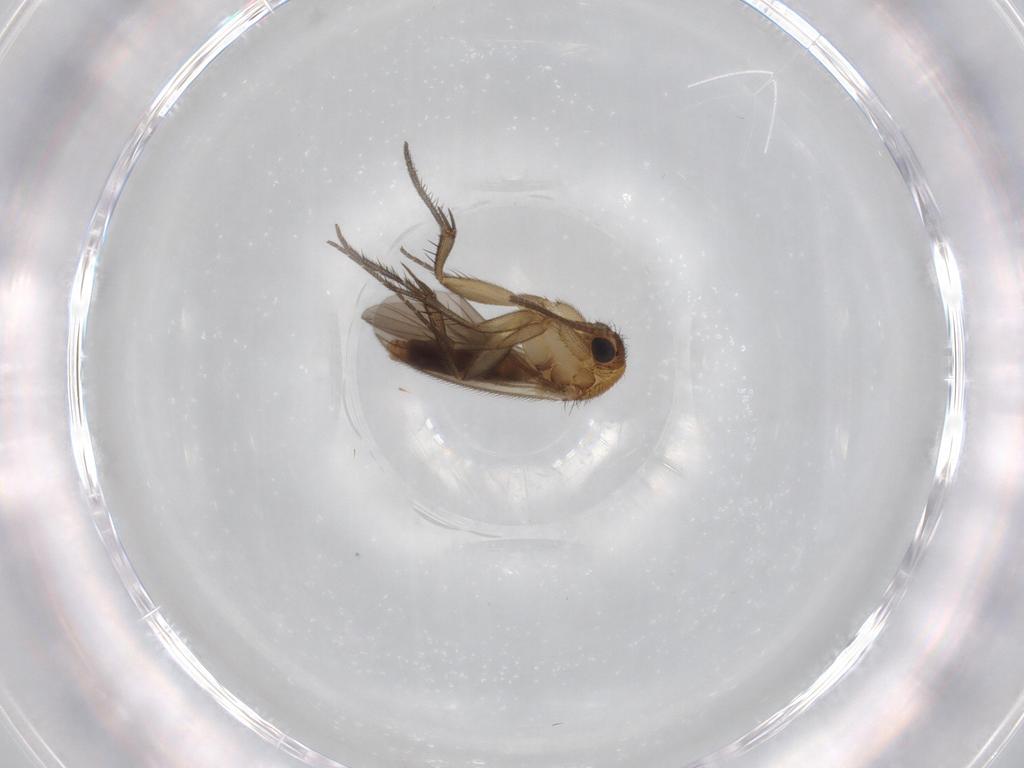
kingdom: Animalia
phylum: Arthropoda
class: Insecta
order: Diptera
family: Mycetophilidae
